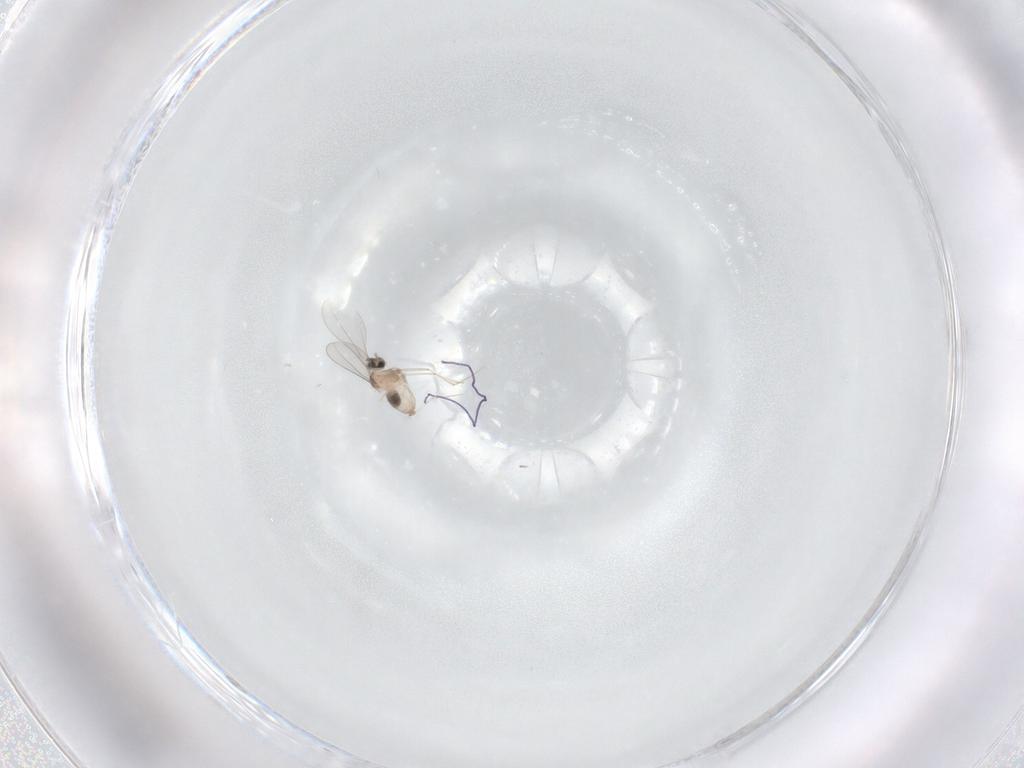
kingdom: Animalia
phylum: Arthropoda
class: Insecta
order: Diptera
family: Cecidomyiidae
